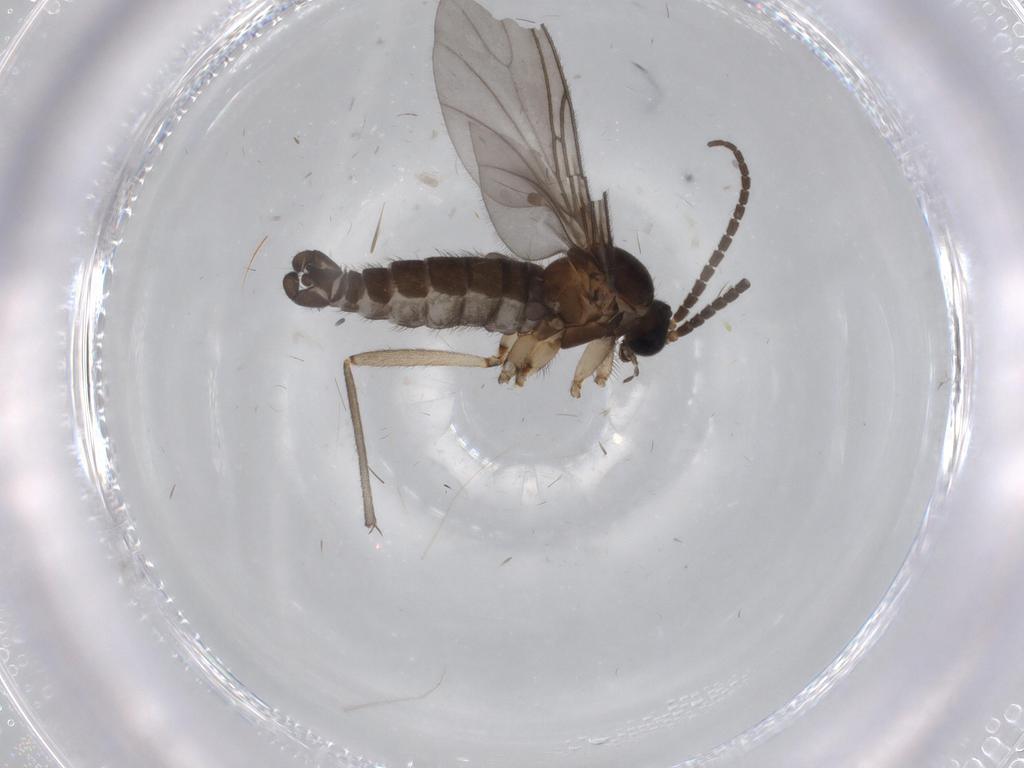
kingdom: Animalia
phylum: Arthropoda
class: Insecta
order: Diptera
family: Sciaridae
